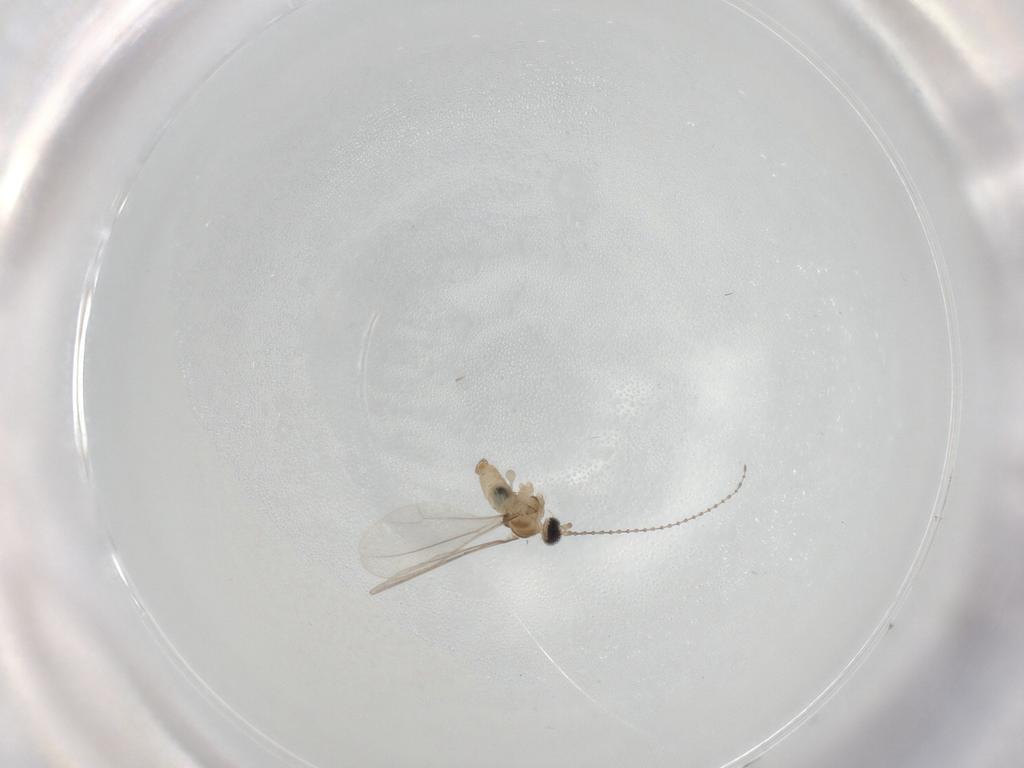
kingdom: Animalia
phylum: Arthropoda
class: Insecta
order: Diptera
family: Cecidomyiidae
